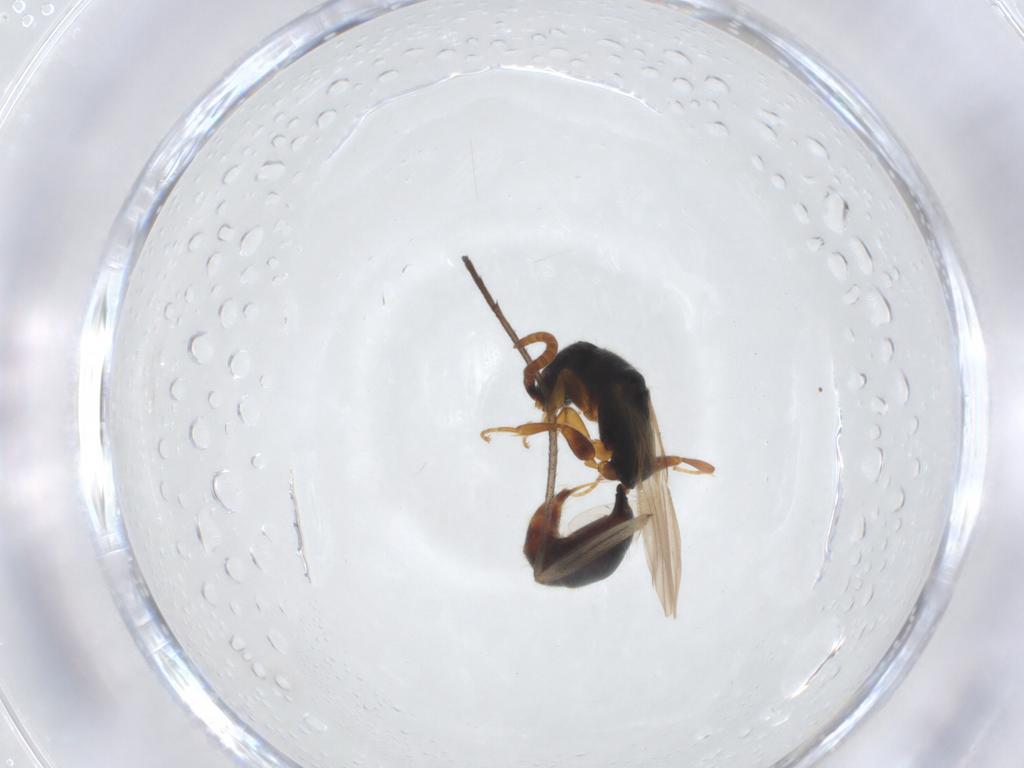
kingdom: Animalia
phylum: Arthropoda
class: Insecta
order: Hymenoptera
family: Bethylidae
